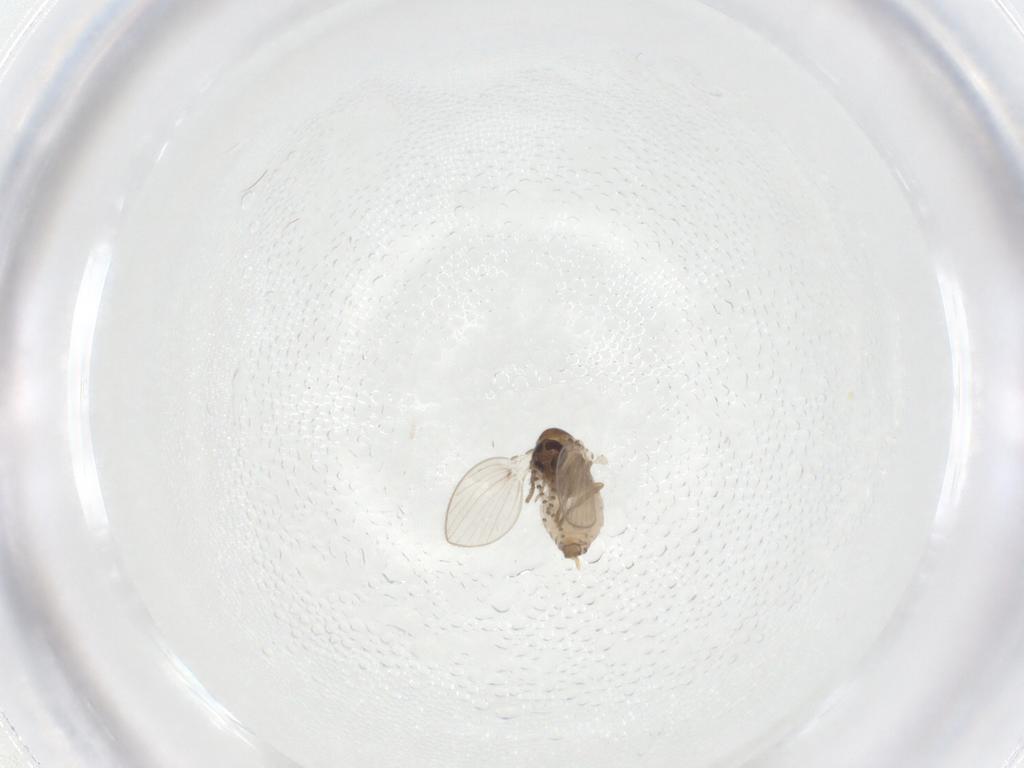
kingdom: Animalia
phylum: Arthropoda
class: Insecta
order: Diptera
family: Psychodidae
